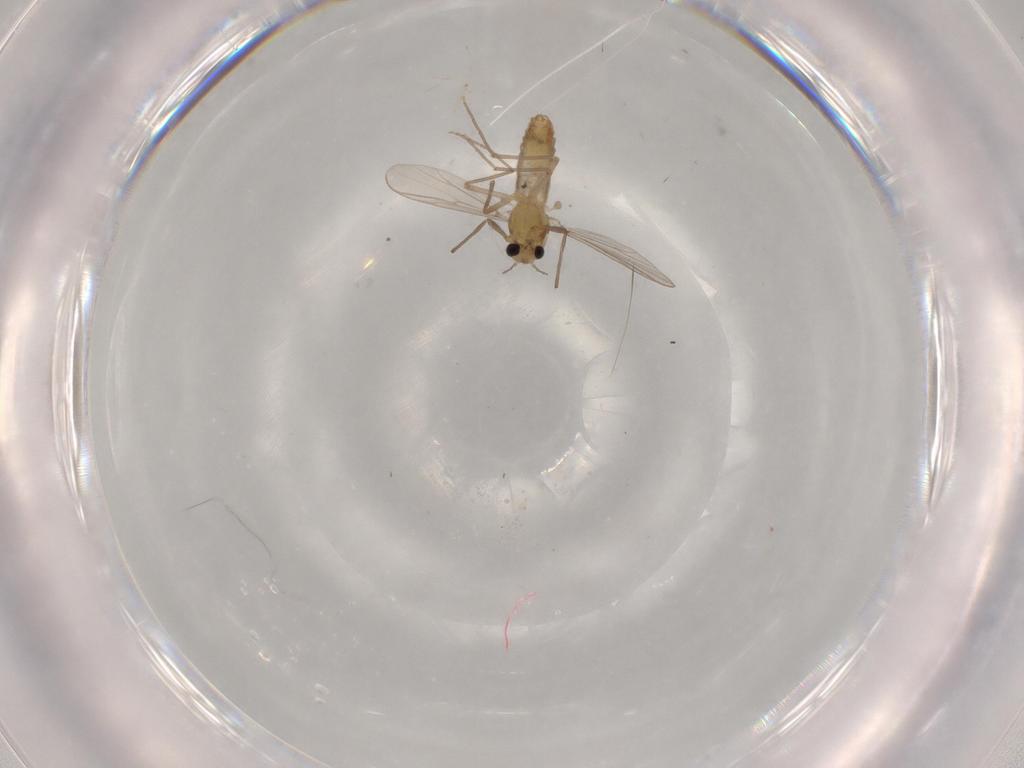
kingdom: Animalia
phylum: Arthropoda
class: Insecta
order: Diptera
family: Chironomidae
